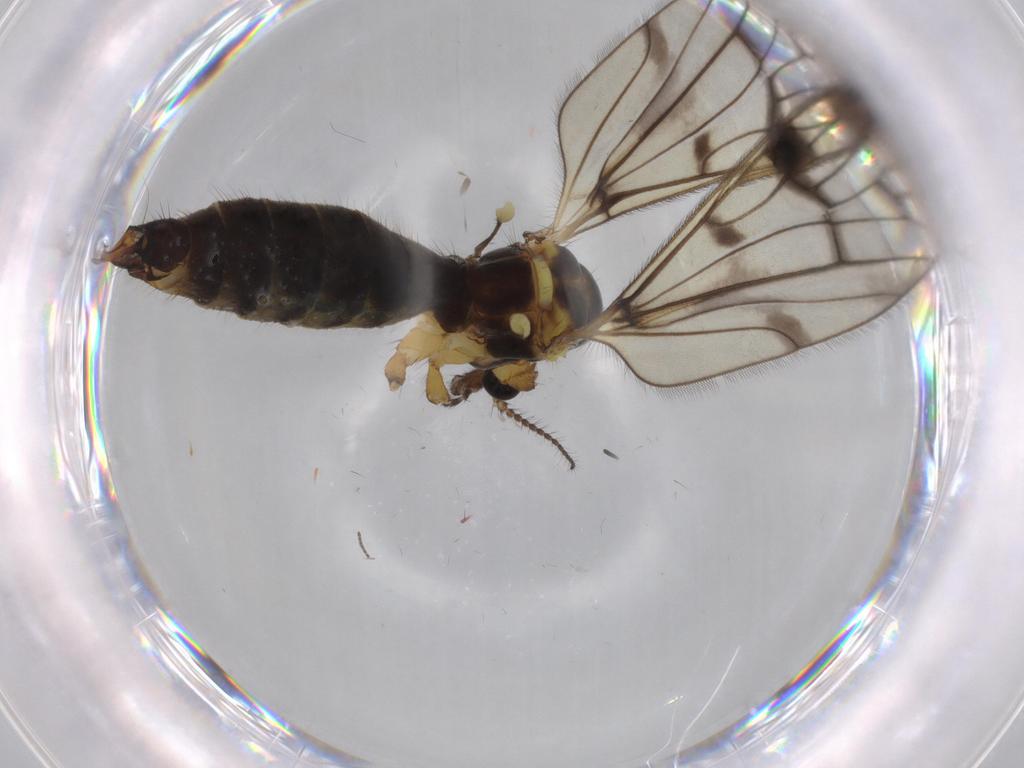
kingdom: Animalia
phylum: Arthropoda
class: Insecta
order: Diptera
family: Limoniidae
